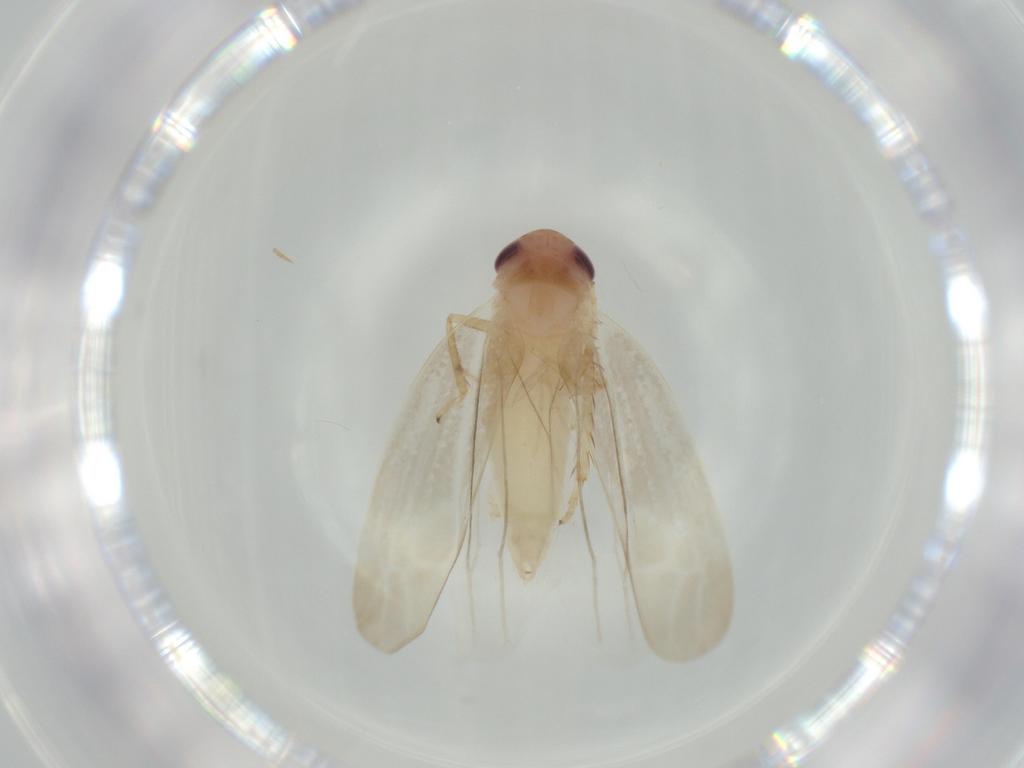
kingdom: Animalia
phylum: Arthropoda
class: Insecta
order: Hemiptera
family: Cicadellidae
